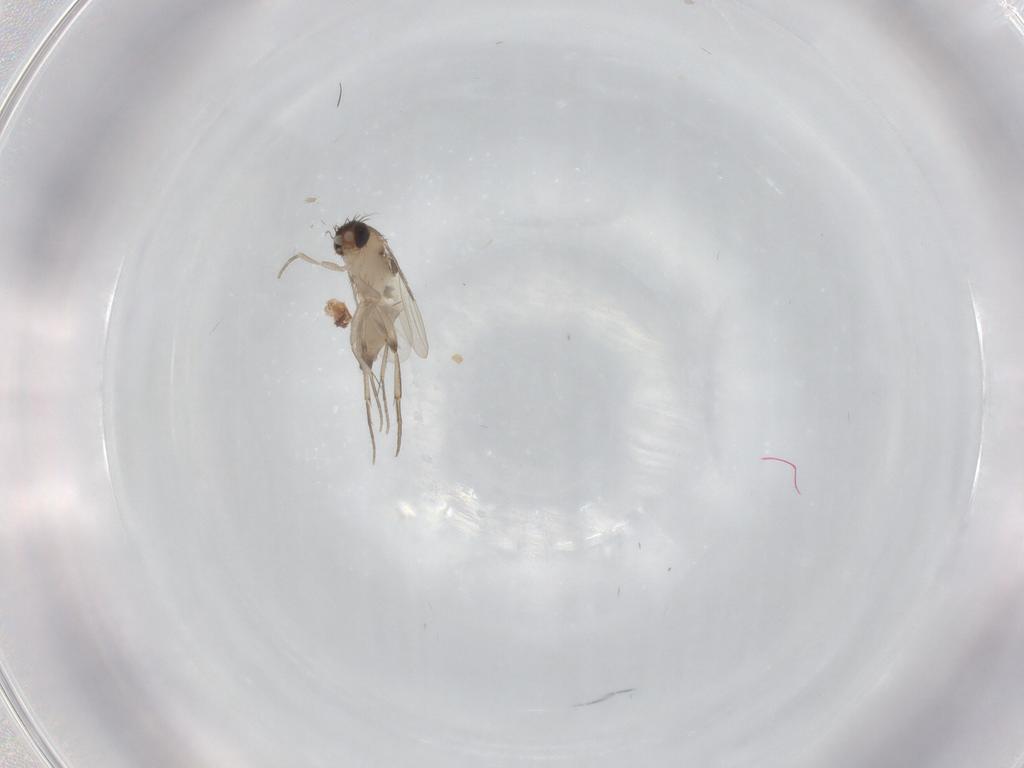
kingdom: Animalia
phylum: Arthropoda
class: Insecta
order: Diptera
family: Phoridae
